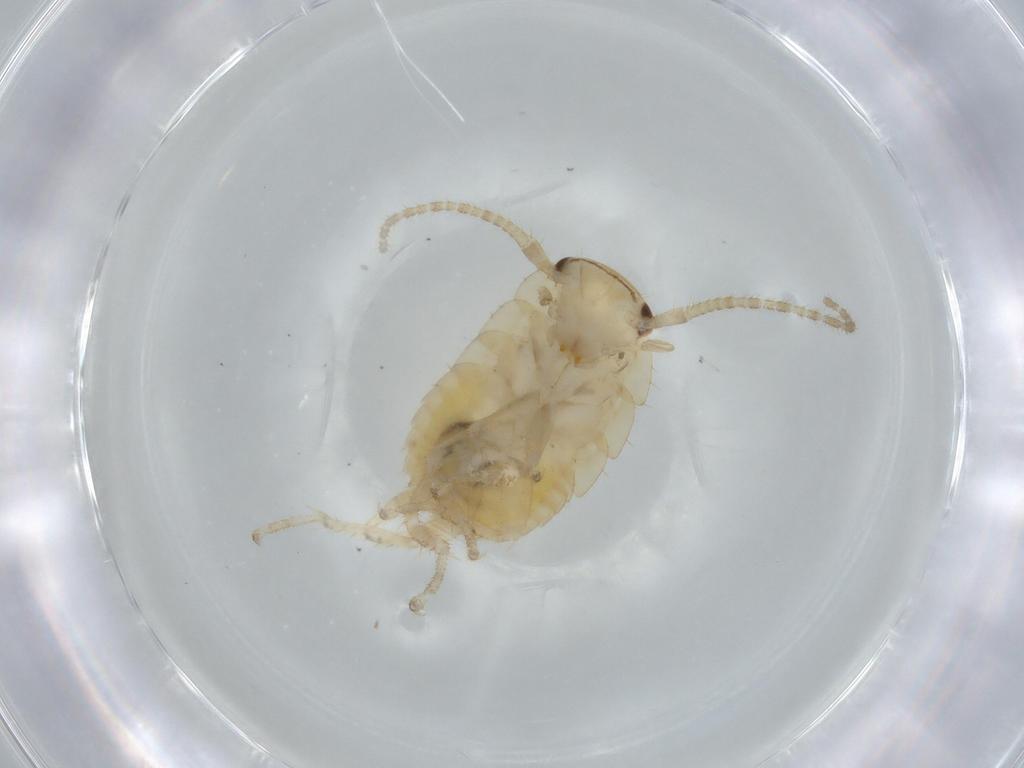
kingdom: Animalia
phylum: Arthropoda
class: Insecta
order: Blattodea
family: Ectobiidae
